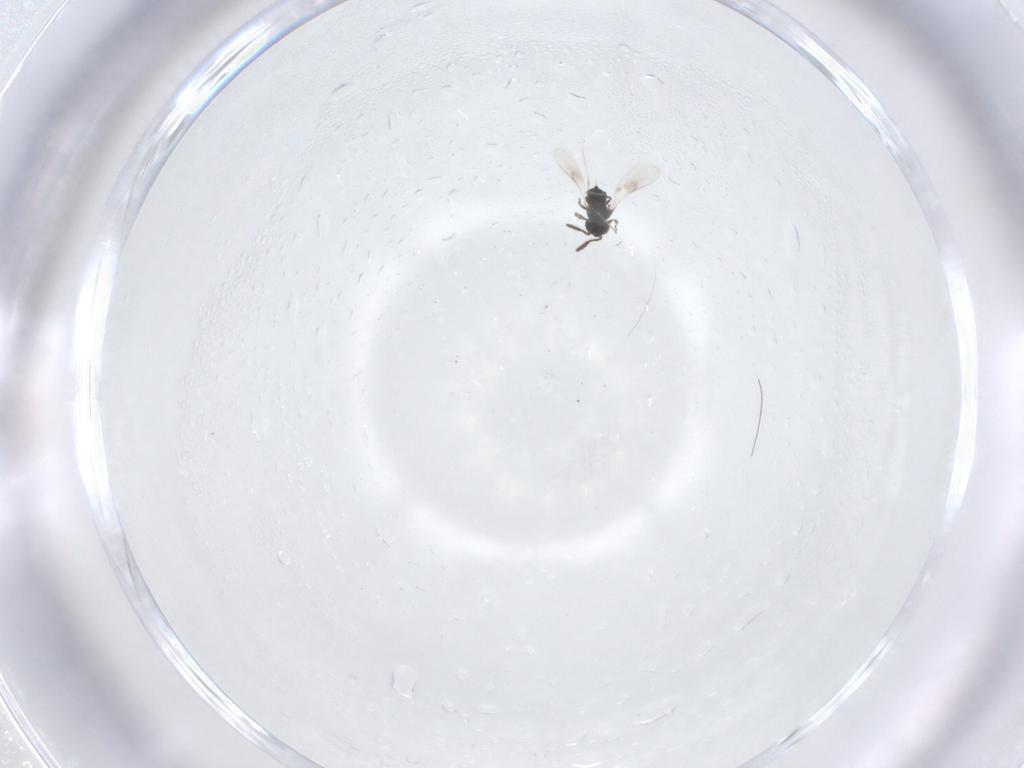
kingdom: Animalia
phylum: Arthropoda
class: Insecta
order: Hymenoptera
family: Scelionidae
